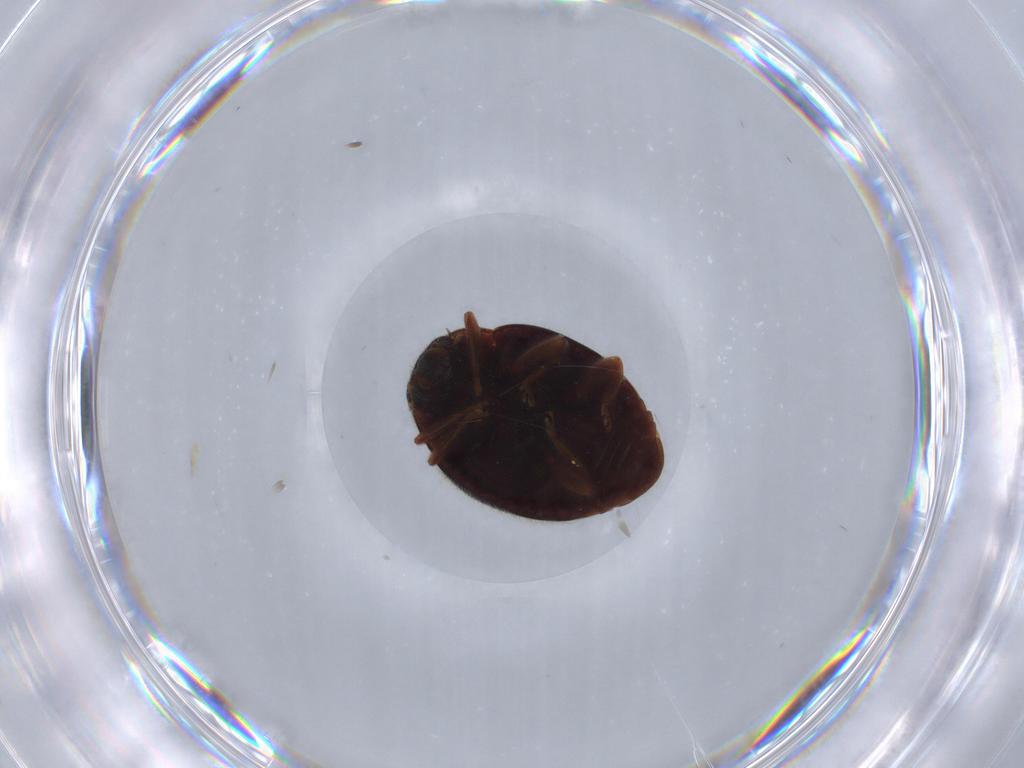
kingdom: Animalia
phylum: Arthropoda
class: Insecta
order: Coleoptera
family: Coccinellidae
